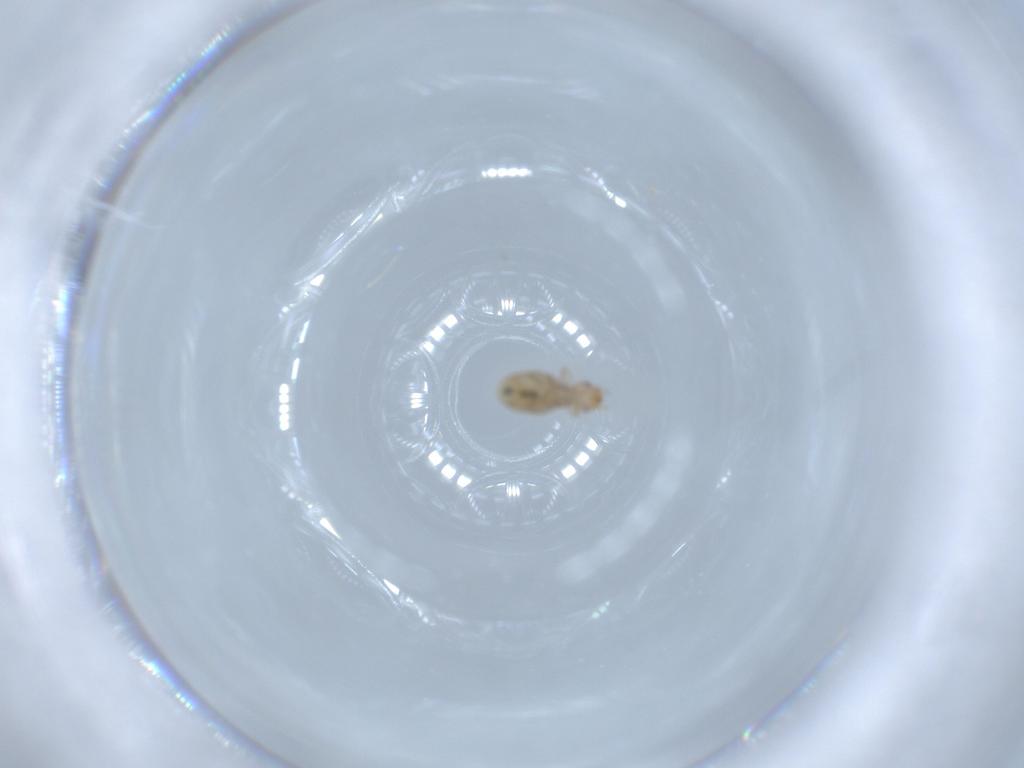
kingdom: Animalia
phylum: Arthropoda
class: Insecta
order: Psocodea
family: Liposcelididae
